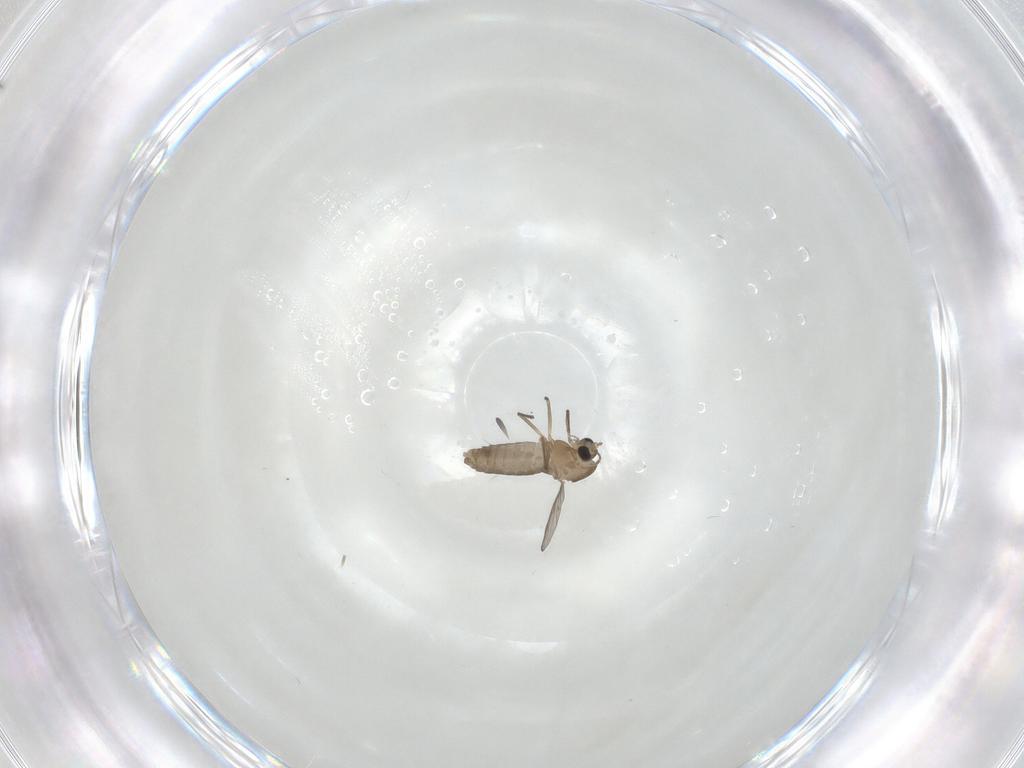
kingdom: Animalia
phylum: Arthropoda
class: Insecta
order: Diptera
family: Chironomidae
